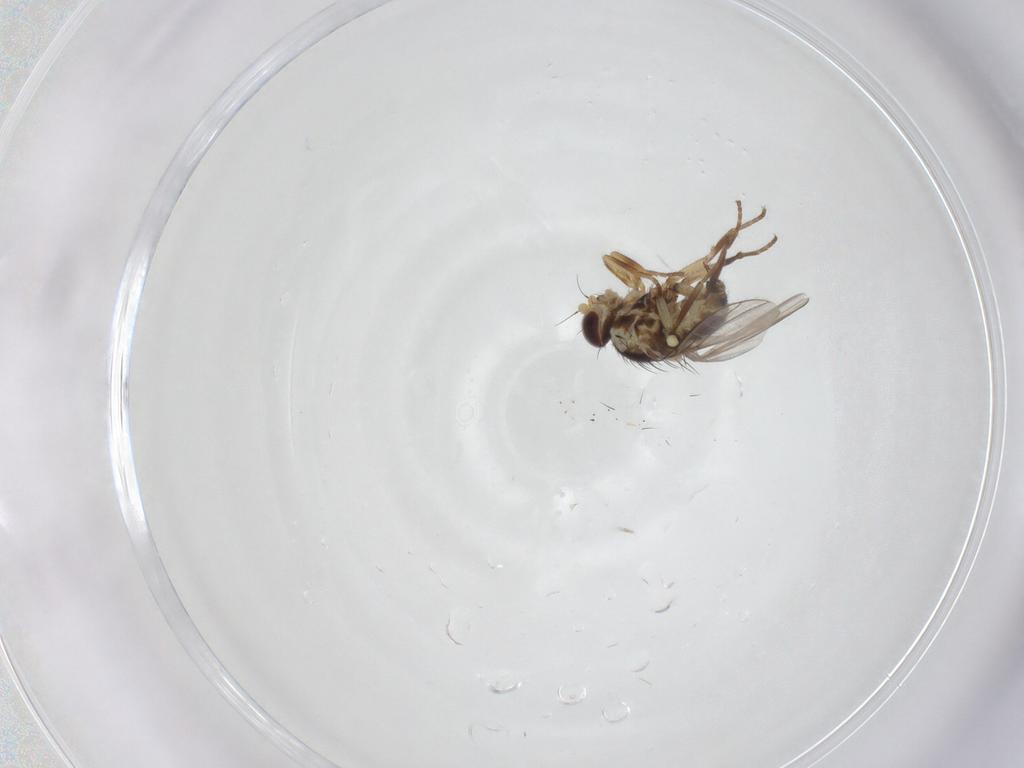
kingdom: Animalia
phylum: Arthropoda
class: Insecta
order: Diptera
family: Agromyzidae
